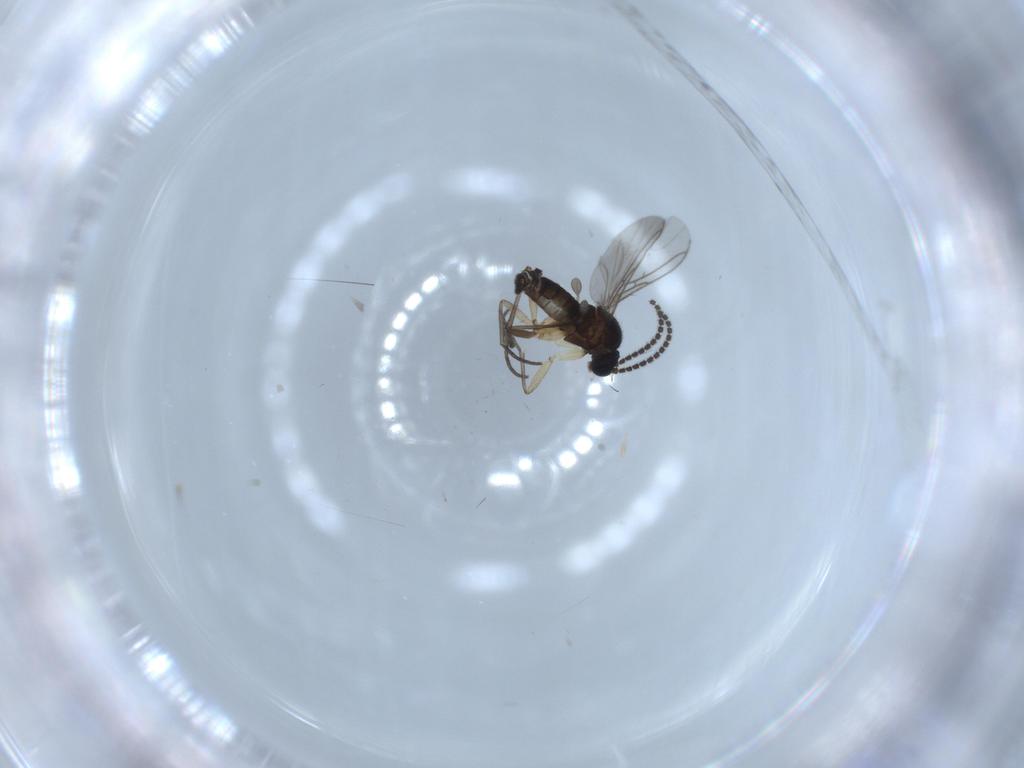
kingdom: Animalia
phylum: Arthropoda
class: Insecta
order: Diptera
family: Sciaridae
